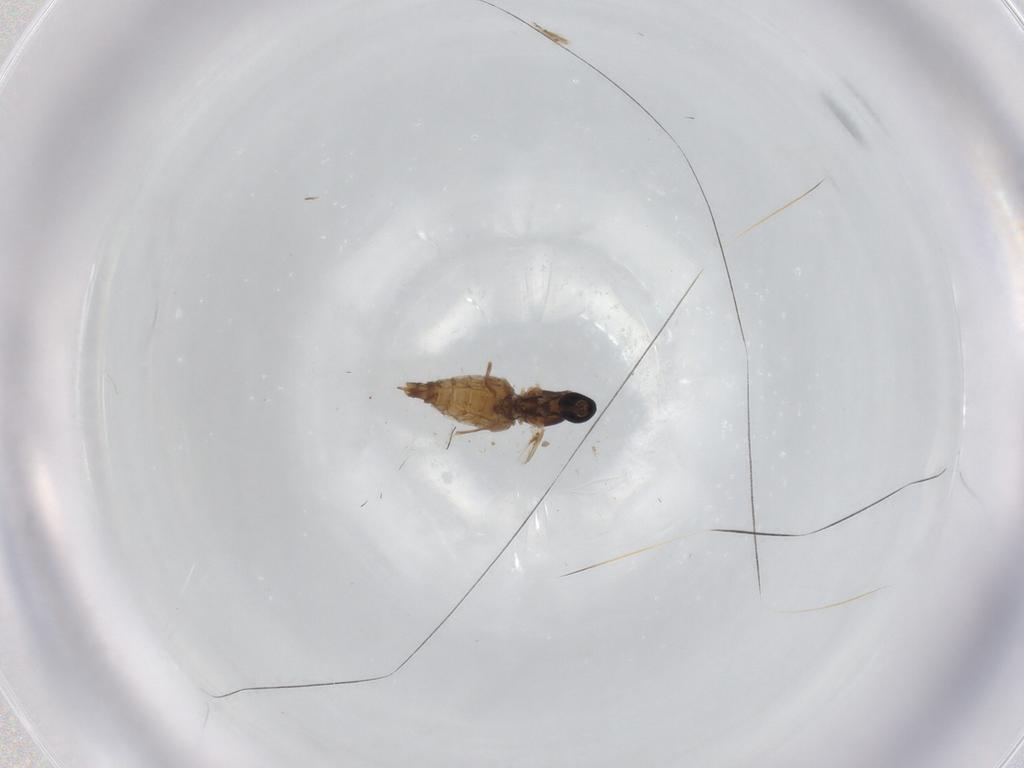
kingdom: Animalia
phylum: Arthropoda
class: Insecta
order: Diptera
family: Cecidomyiidae
